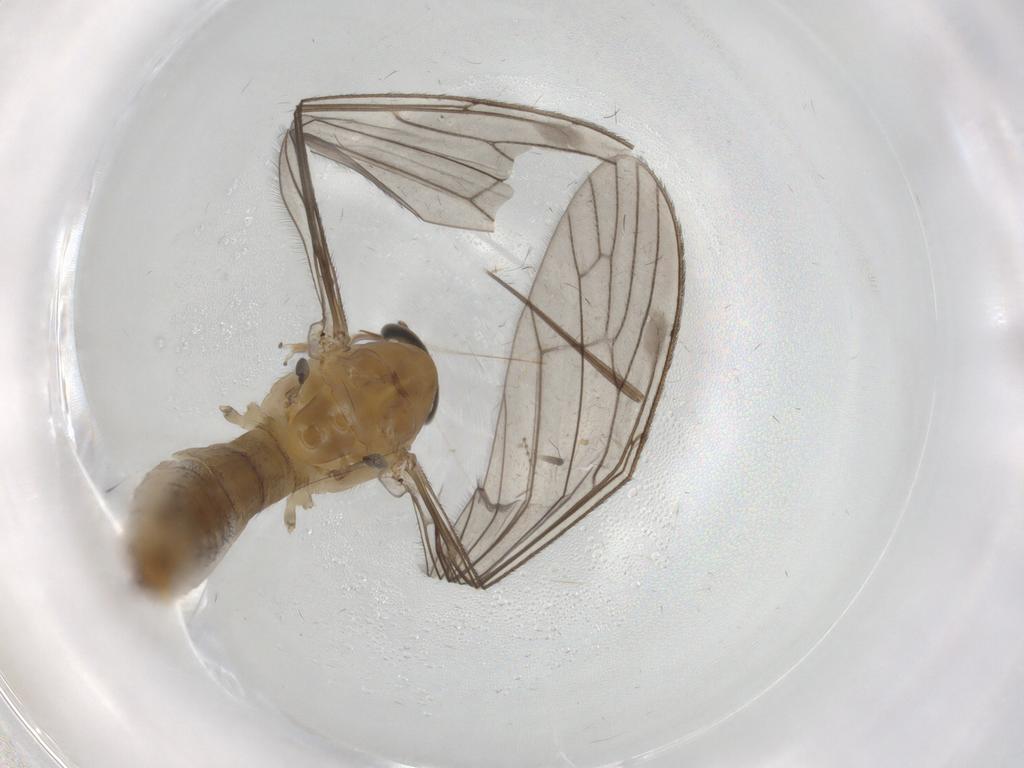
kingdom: Animalia
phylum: Arthropoda
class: Insecta
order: Diptera
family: Limoniidae
